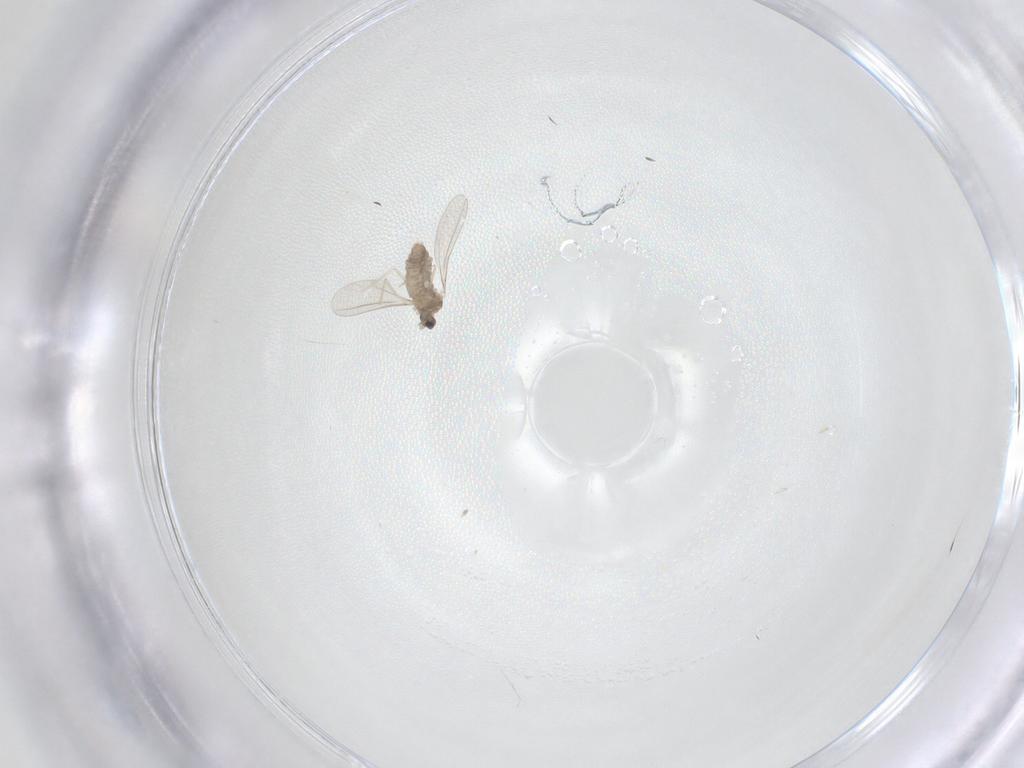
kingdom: Animalia
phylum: Arthropoda
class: Insecta
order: Diptera
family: Cecidomyiidae
